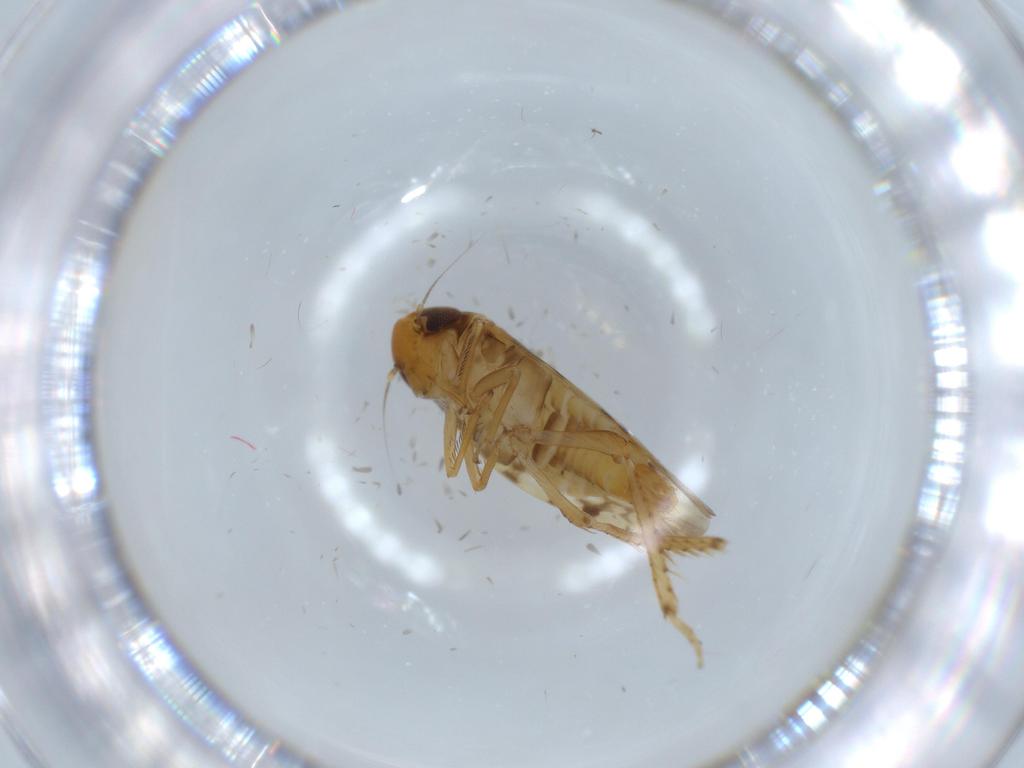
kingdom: Animalia
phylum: Arthropoda
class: Insecta
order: Hemiptera
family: Cicadellidae
